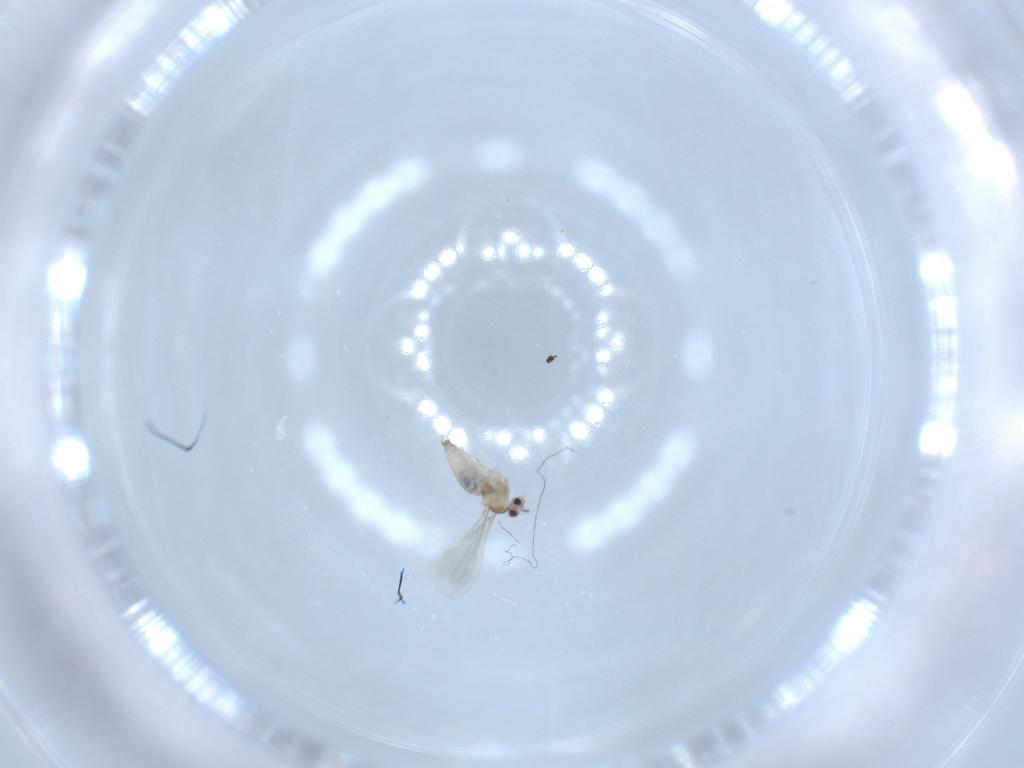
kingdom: Animalia
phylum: Arthropoda
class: Insecta
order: Diptera
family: Cecidomyiidae
